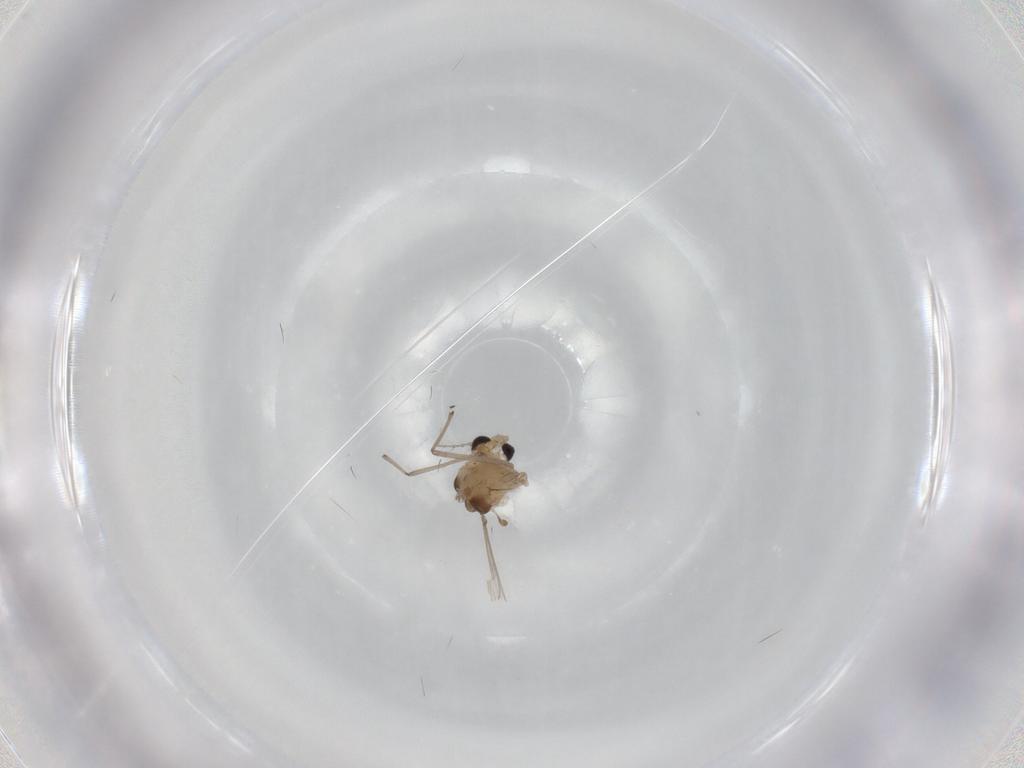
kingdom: Animalia
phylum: Arthropoda
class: Insecta
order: Diptera
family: Chironomidae
